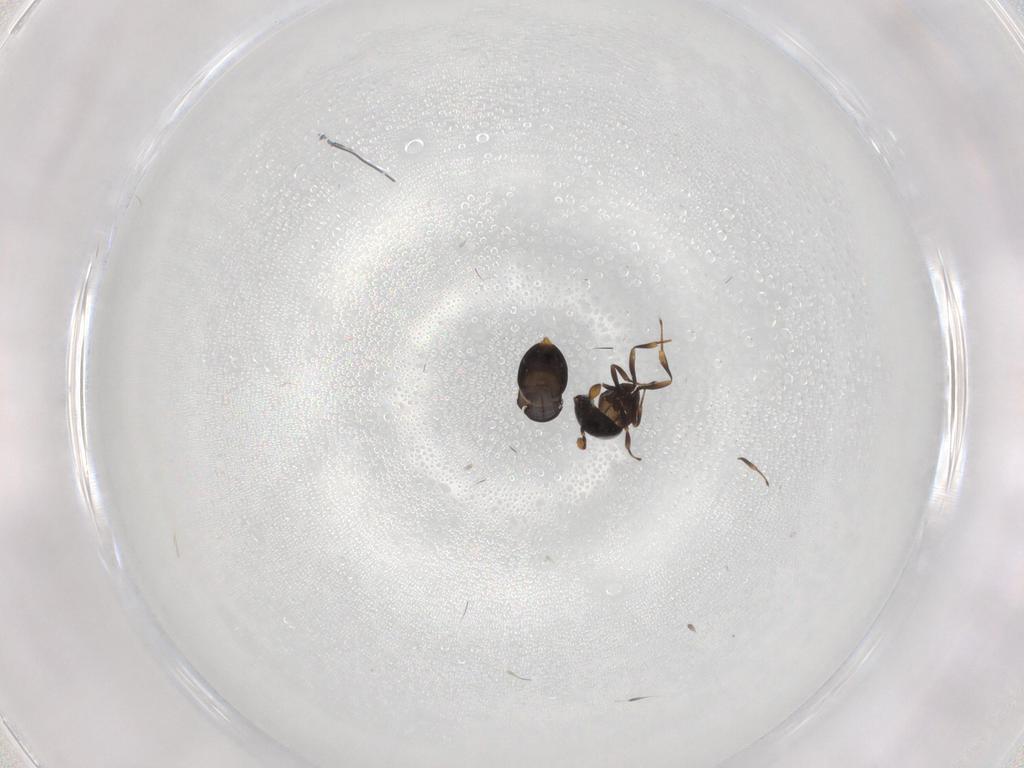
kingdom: Animalia
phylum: Arthropoda
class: Insecta
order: Hymenoptera
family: Scelionidae
